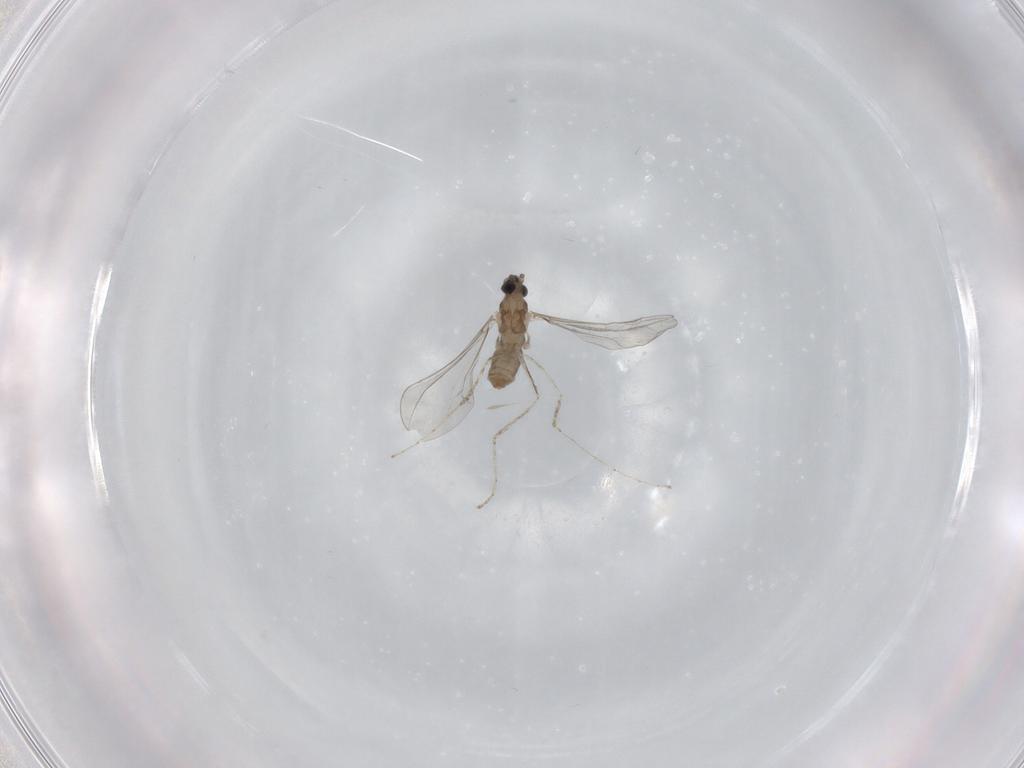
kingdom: Animalia
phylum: Arthropoda
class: Insecta
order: Diptera
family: Cecidomyiidae
